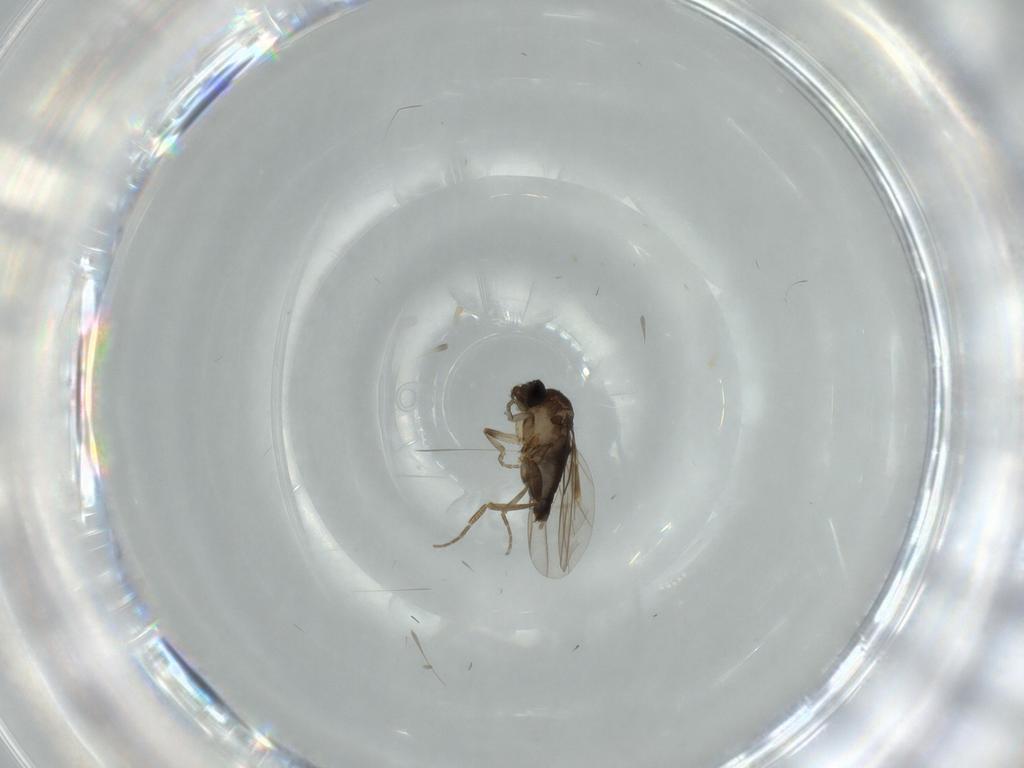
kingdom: Animalia
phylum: Arthropoda
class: Insecta
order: Diptera
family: Phoridae
